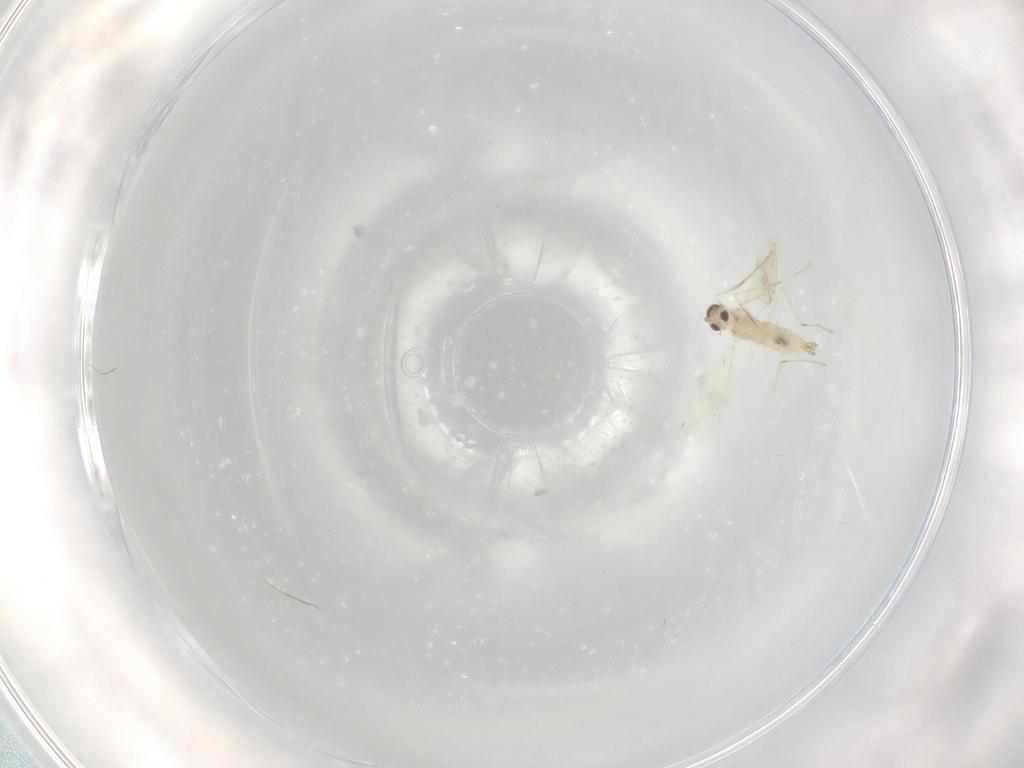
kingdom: Animalia
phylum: Arthropoda
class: Insecta
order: Diptera
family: Cecidomyiidae
